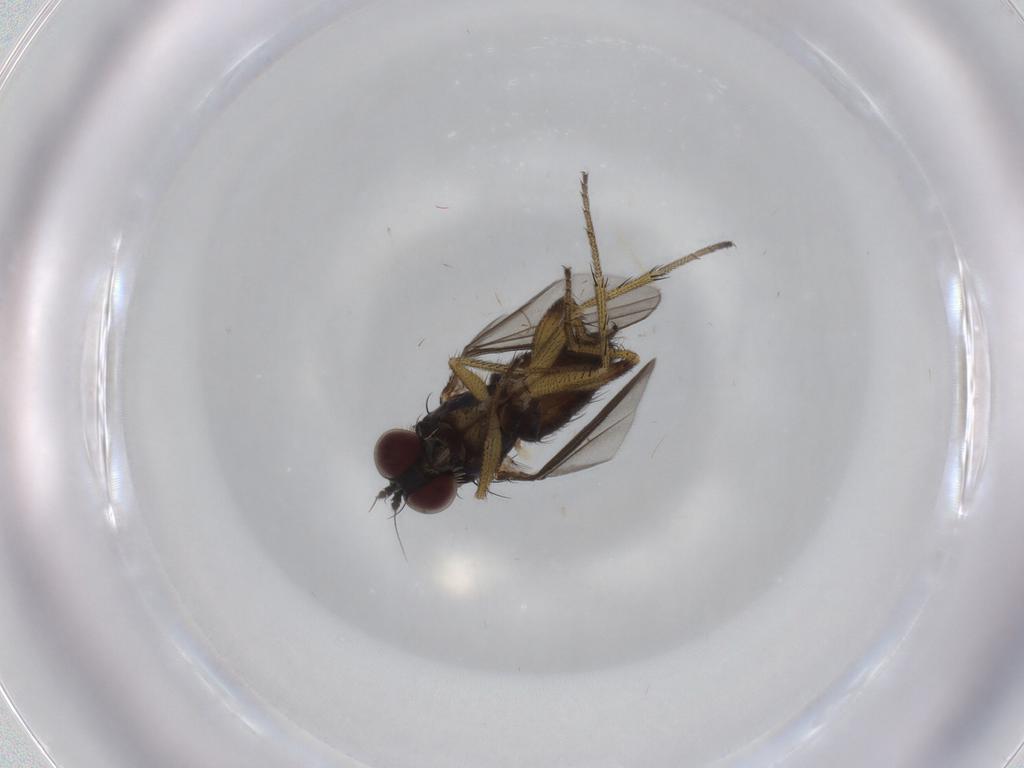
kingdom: Animalia
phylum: Arthropoda
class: Insecta
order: Diptera
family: Dolichopodidae
